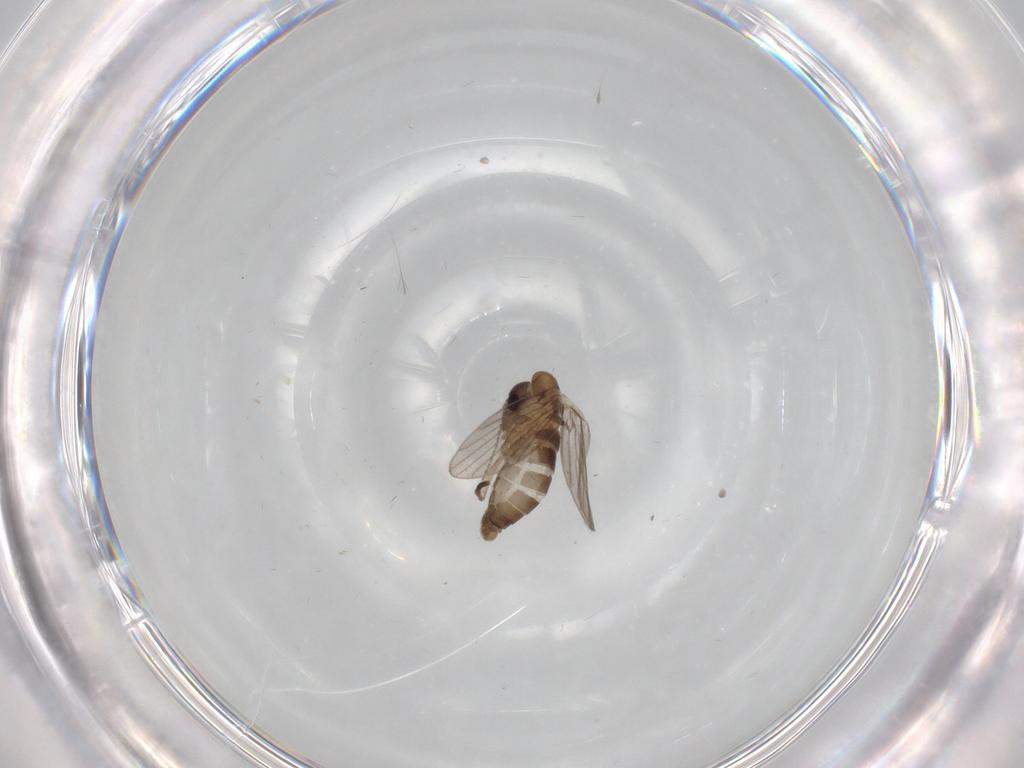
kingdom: Animalia
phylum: Arthropoda
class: Insecta
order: Diptera
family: Psychodidae
